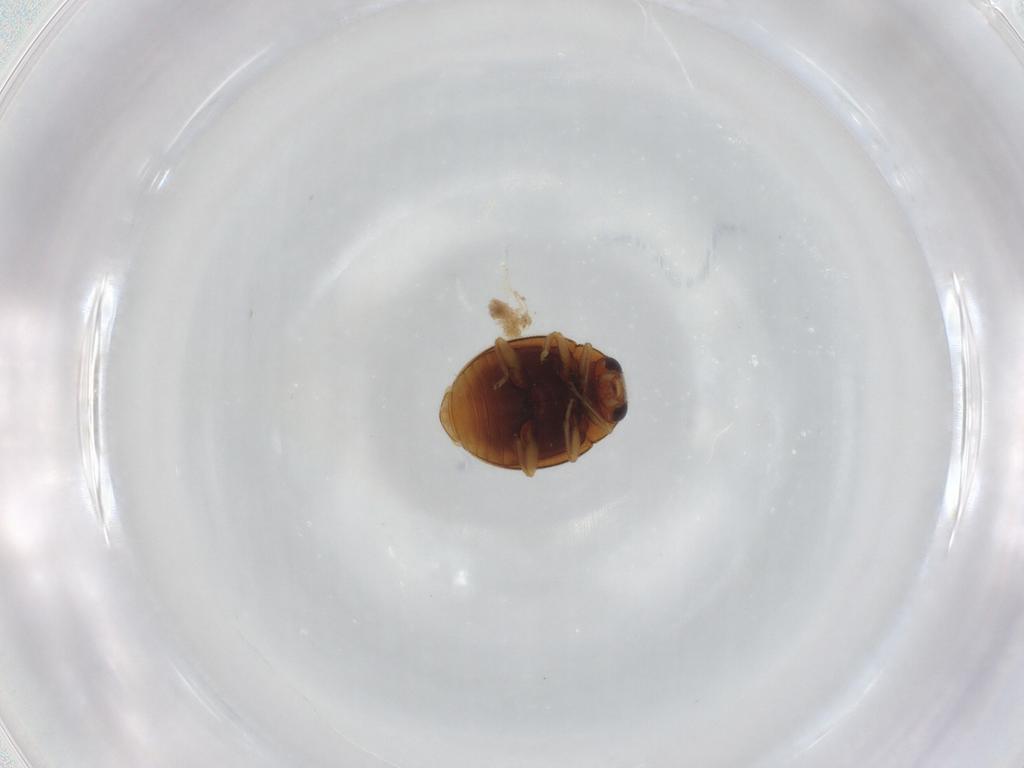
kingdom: Animalia
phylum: Arthropoda
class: Insecta
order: Coleoptera
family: Coccinellidae
